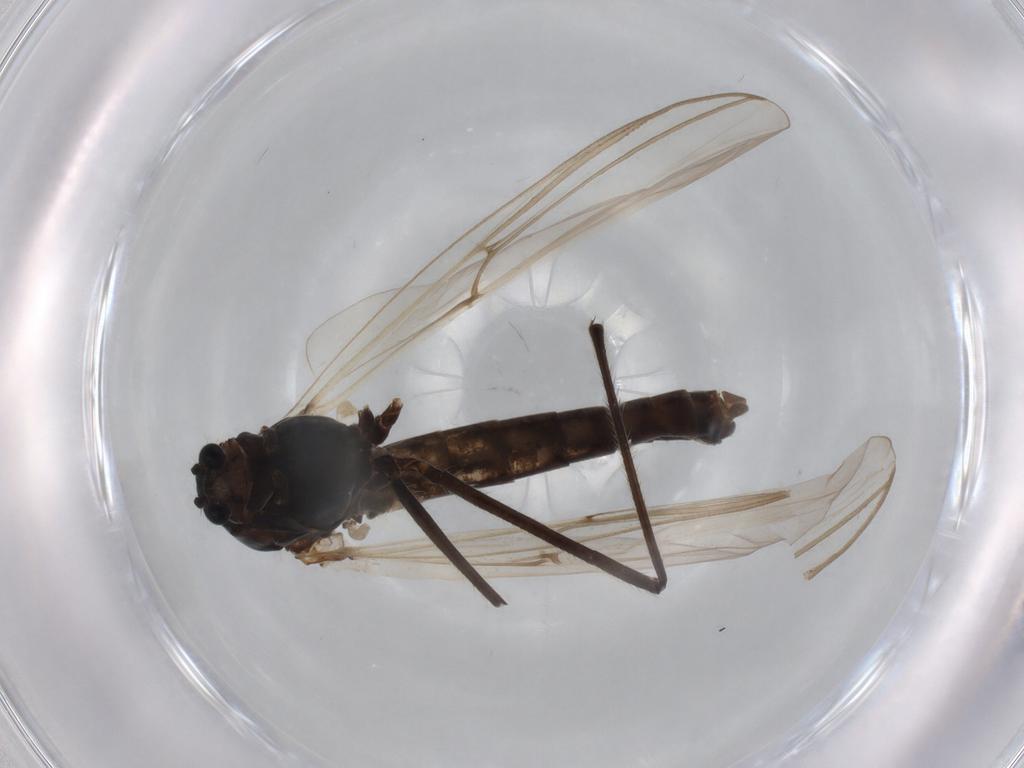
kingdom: Animalia
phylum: Arthropoda
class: Insecta
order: Diptera
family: Chironomidae
